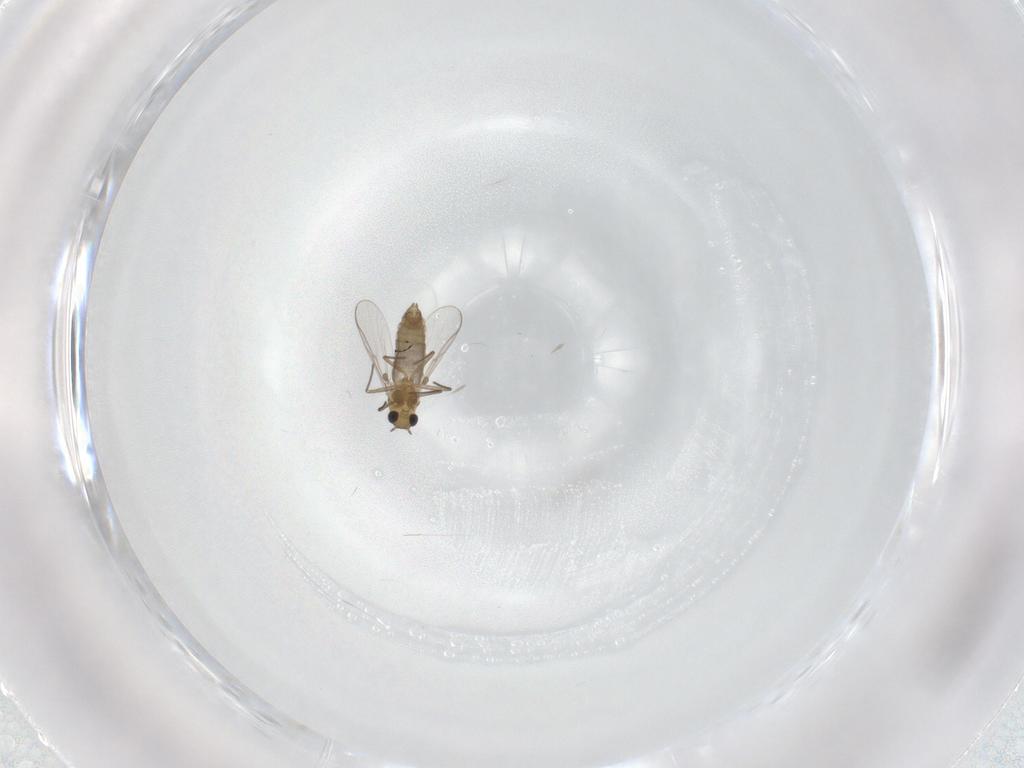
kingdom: Animalia
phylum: Arthropoda
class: Insecta
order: Diptera
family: Cecidomyiidae
